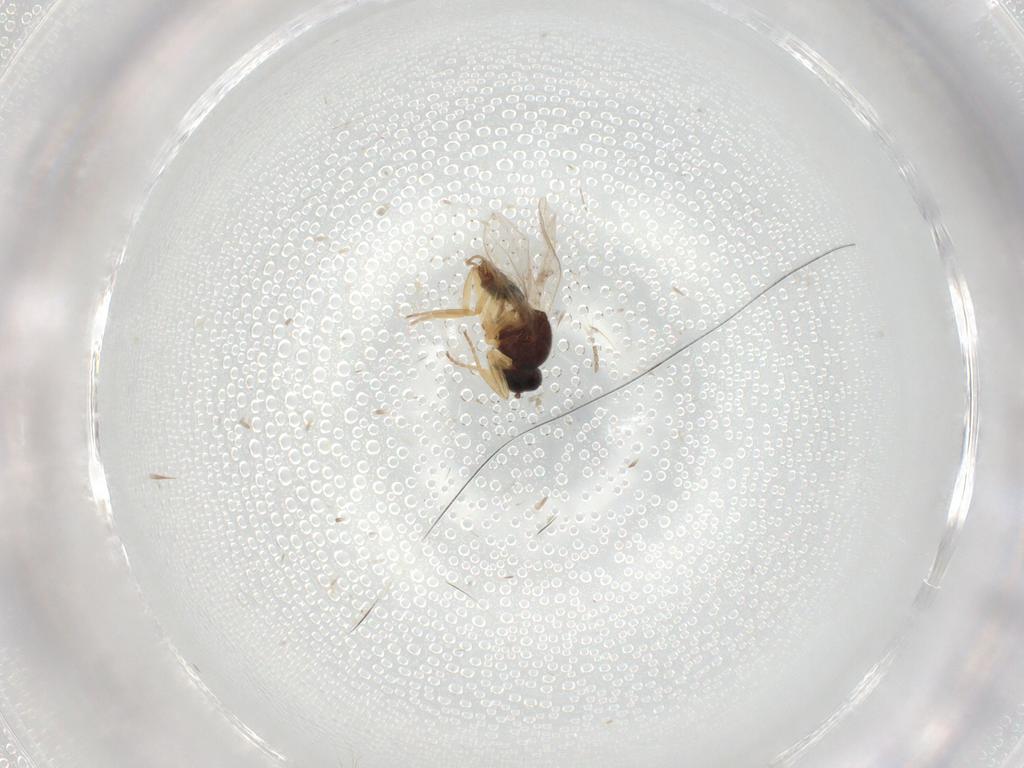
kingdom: Animalia
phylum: Arthropoda
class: Insecta
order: Diptera
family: Hybotidae
